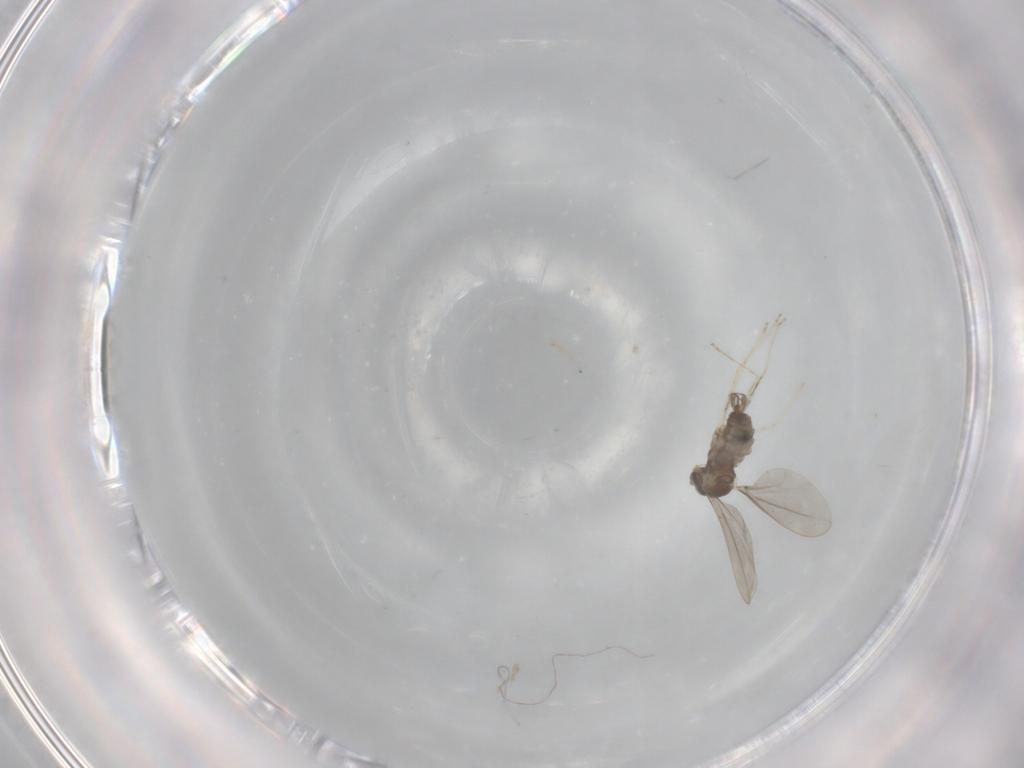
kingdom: Animalia
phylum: Arthropoda
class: Insecta
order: Diptera
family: Cecidomyiidae
